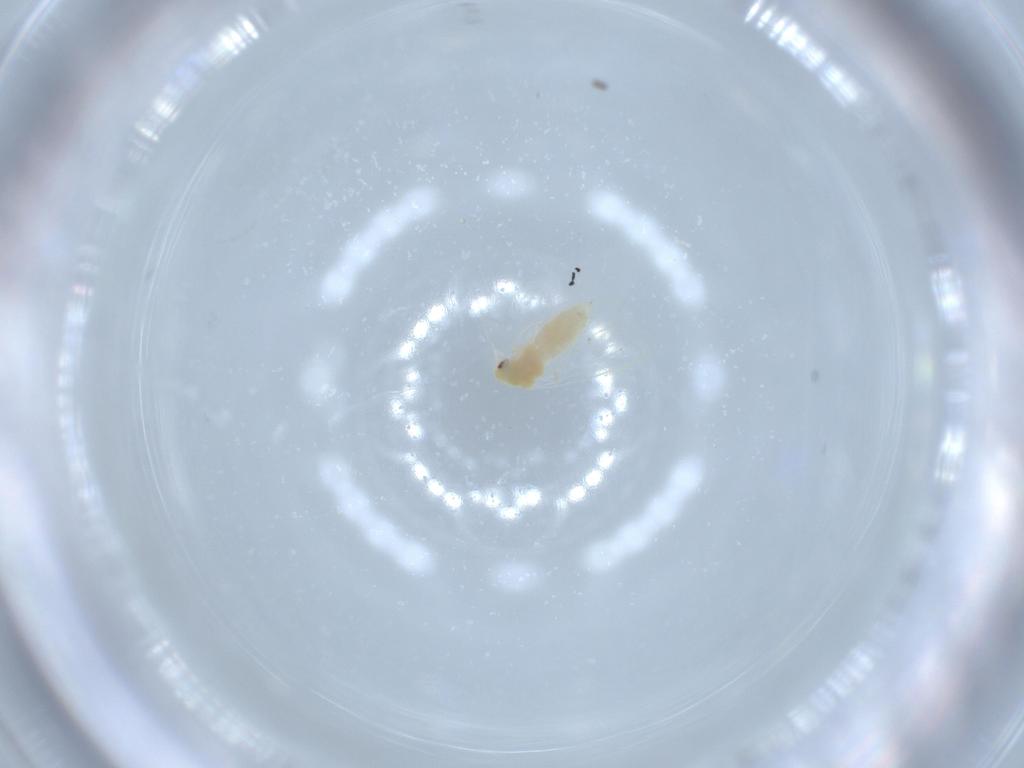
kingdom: Animalia
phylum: Arthropoda
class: Insecta
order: Hemiptera
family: Aleyrodidae
